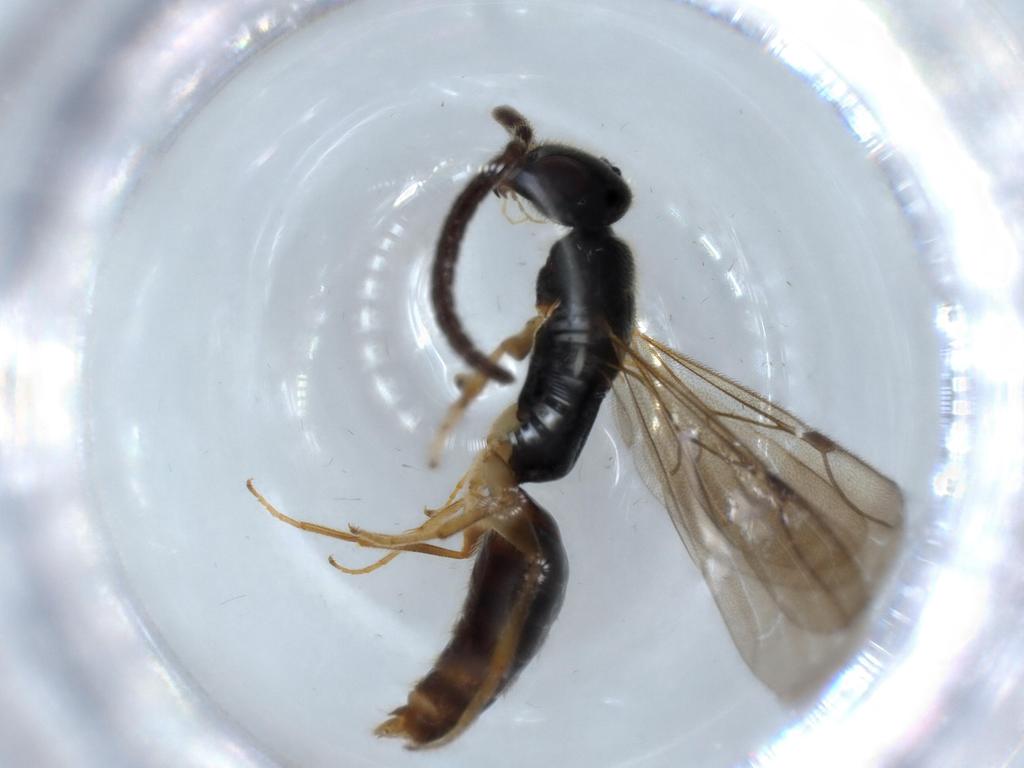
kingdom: Animalia
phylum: Arthropoda
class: Insecta
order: Hymenoptera
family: Bethylidae
